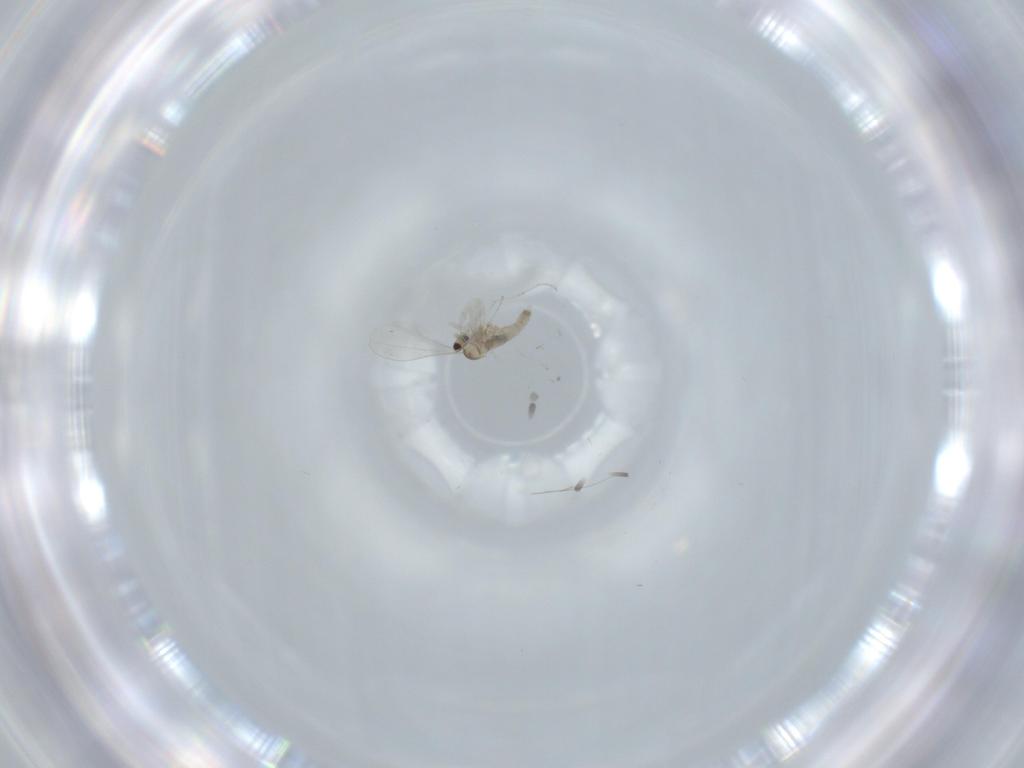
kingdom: Animalia
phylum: Arthropoda
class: Insecta
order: Diptera
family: Cecidomyiidae
